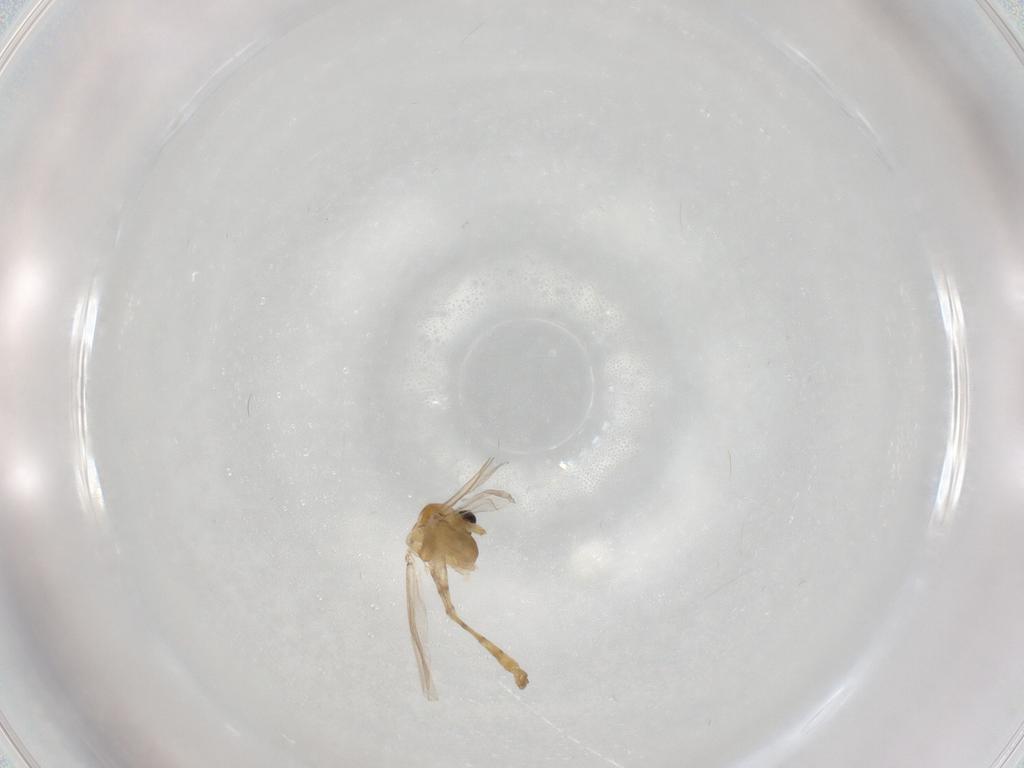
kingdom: Animalia
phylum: Arthropoda
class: Insecta
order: Diptera
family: Chironomidae
